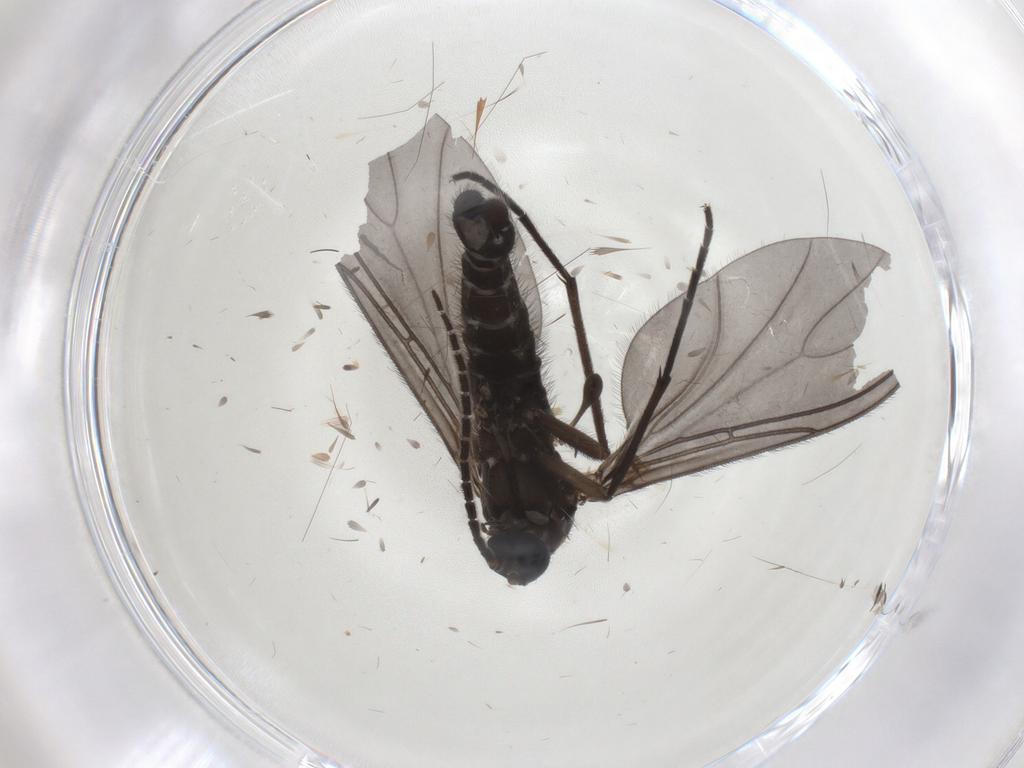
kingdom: Animalia
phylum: Arthropoda
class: Insecta
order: Diptera
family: Sciaridae
